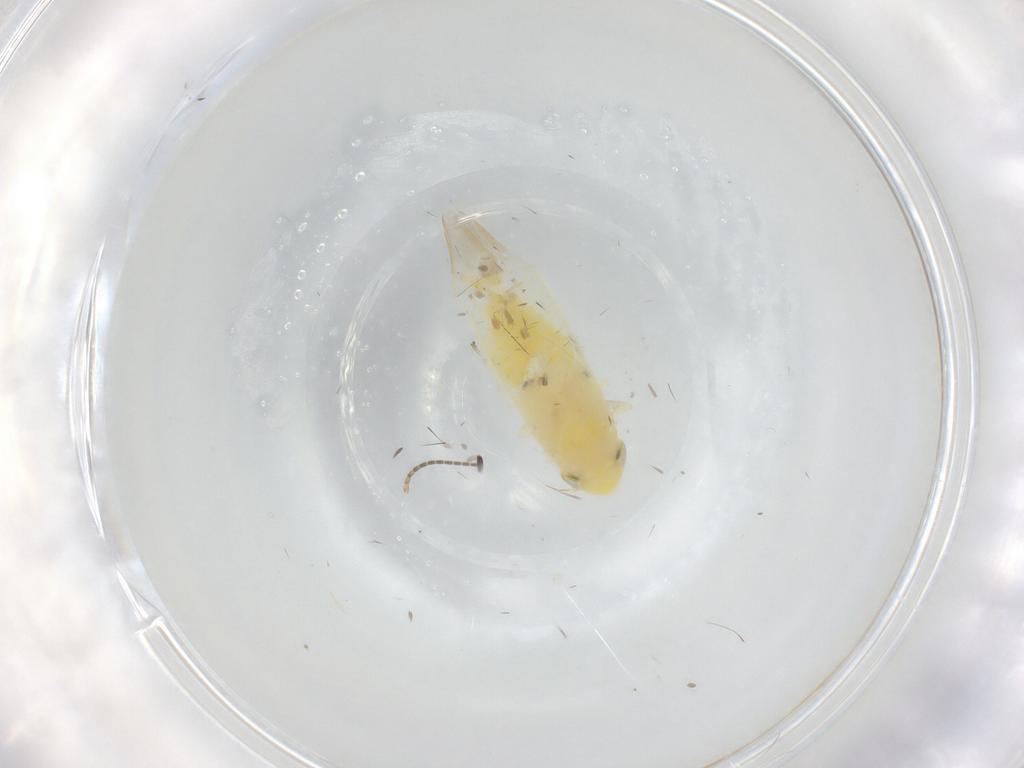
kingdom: Animalia
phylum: Arthropoda
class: Insecta
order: Hemiptera
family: Cicadellidae
